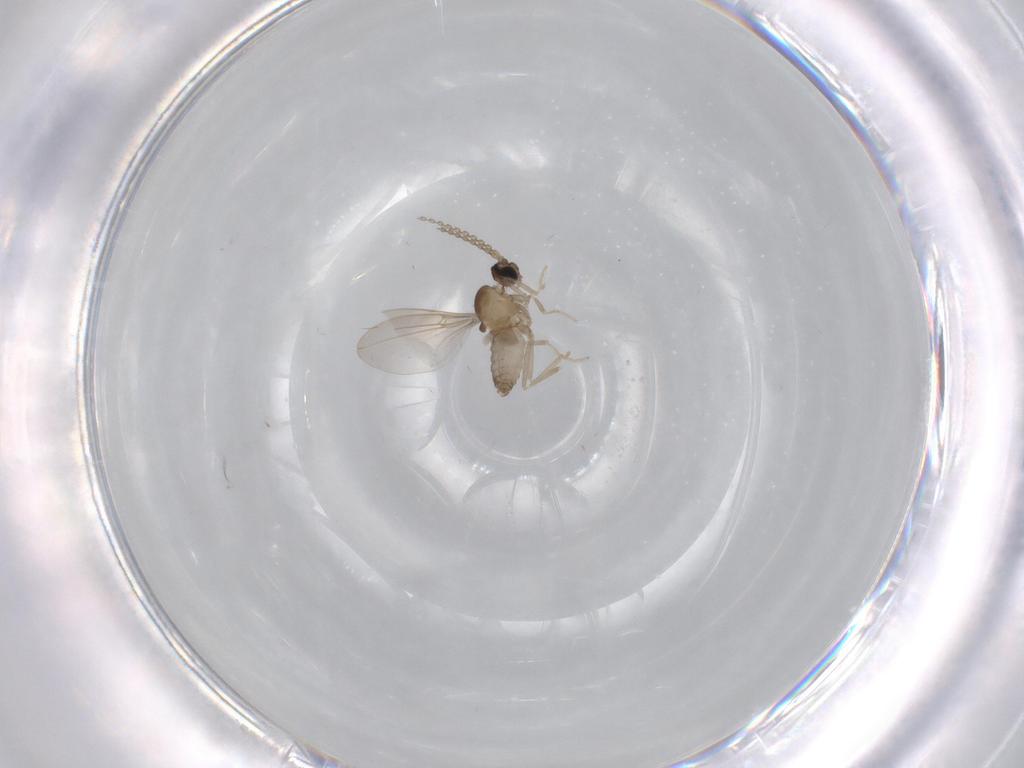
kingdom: Animalia
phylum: Arthropoda
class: Insecta
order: Diptera
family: Cecidomyiidae
